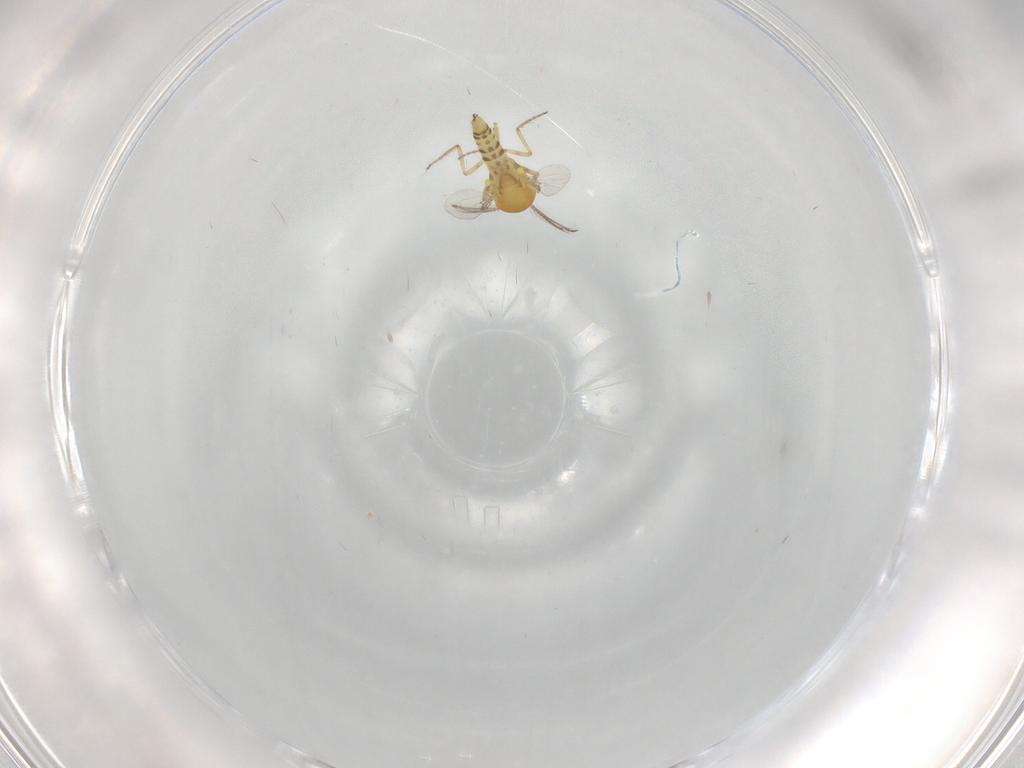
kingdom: Animalia
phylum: Arthropoda
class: Insecta
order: Diptera
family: Ceratopogonidae
